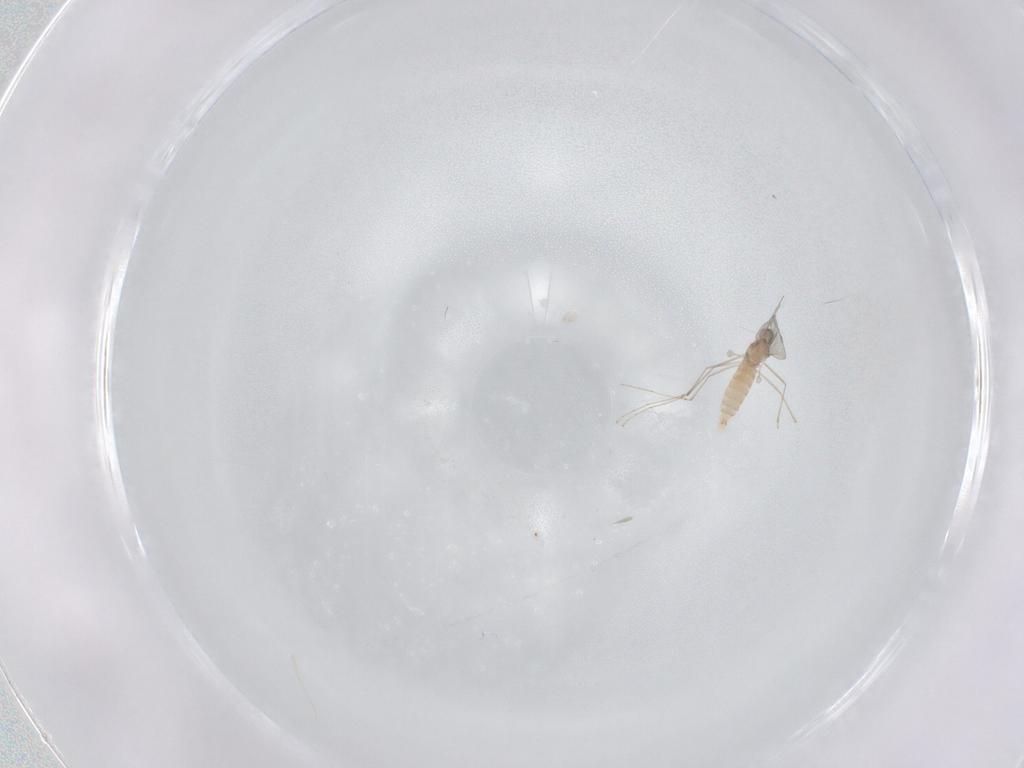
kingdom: Animalia
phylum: Arthropoda
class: Insecta
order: Diptera
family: Cecidomyiidae
